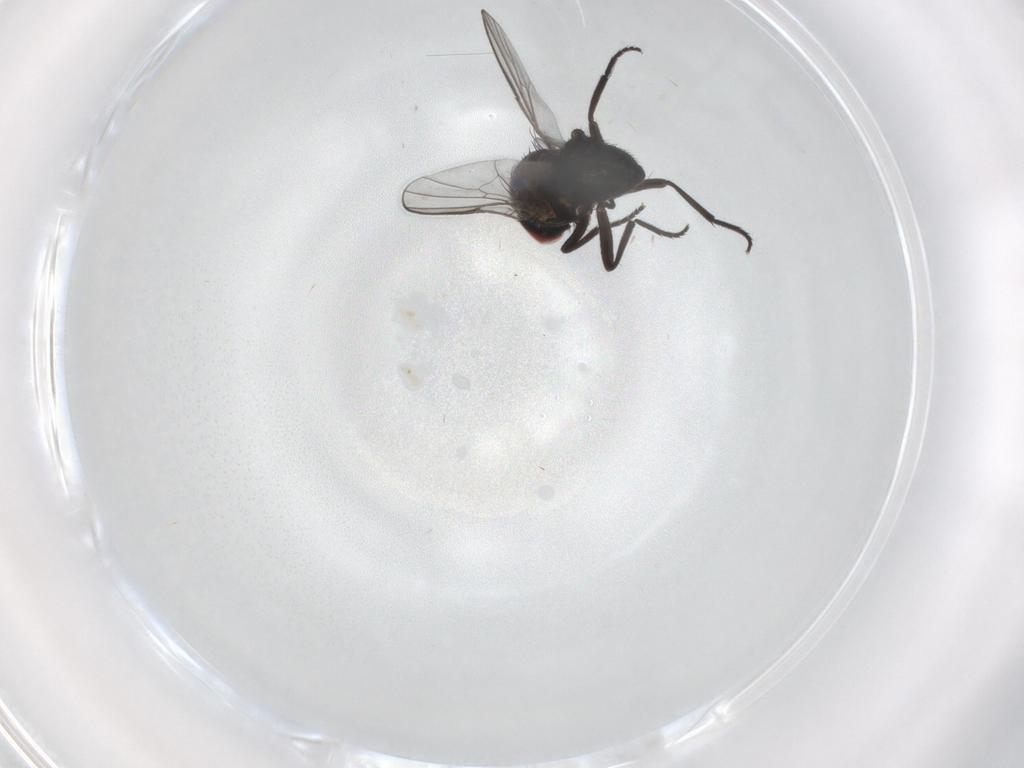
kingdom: Animalia
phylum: Arthropoda
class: Insecta
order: Diptera
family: Agromyzidae
